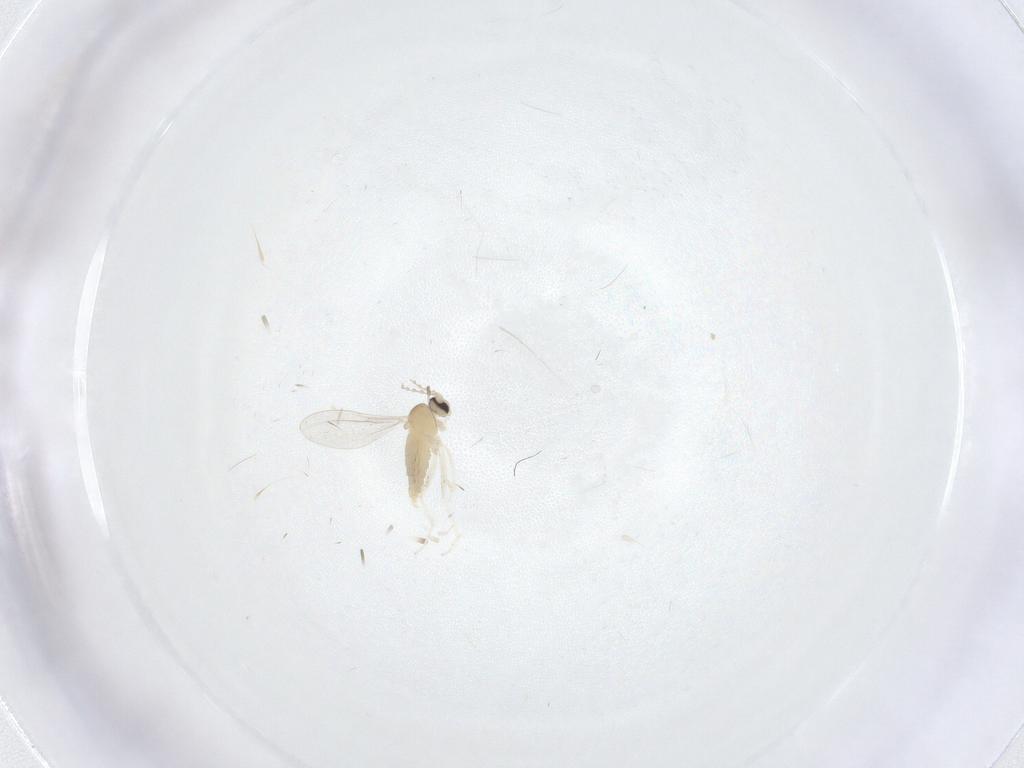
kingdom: Animalia
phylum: Arthropoda
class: Insecta
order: Diptera
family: Cecidomyiidae
